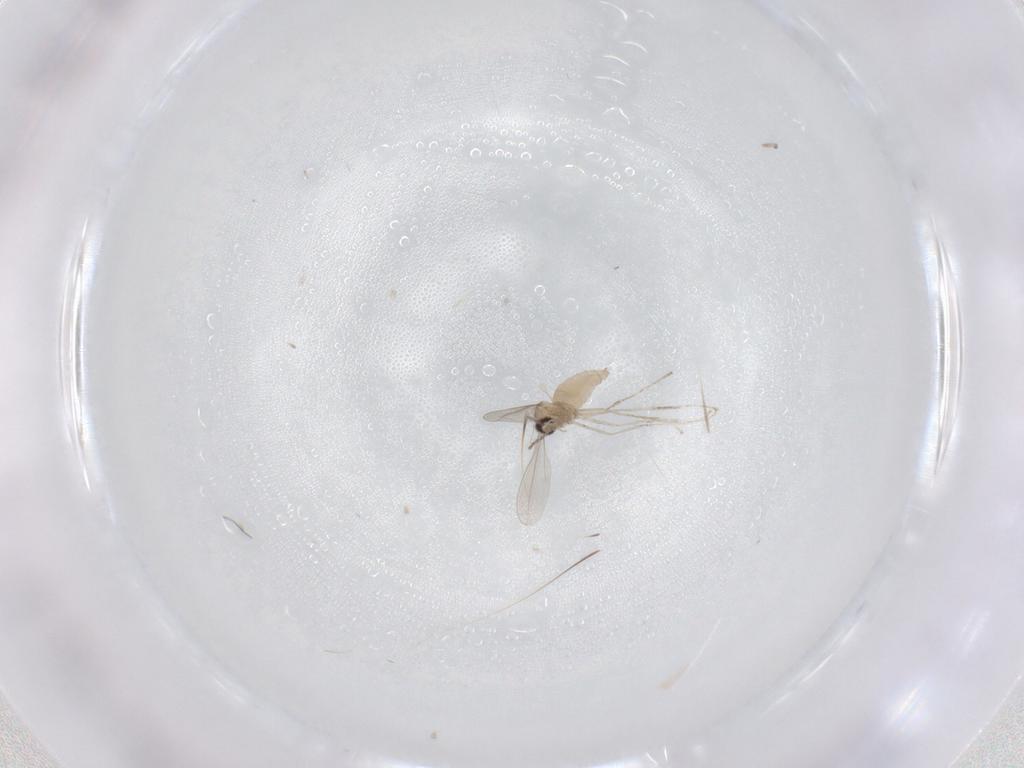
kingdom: Animalia
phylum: Arthropoda
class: Insecta
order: Diptera
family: Cecidomyiidae
